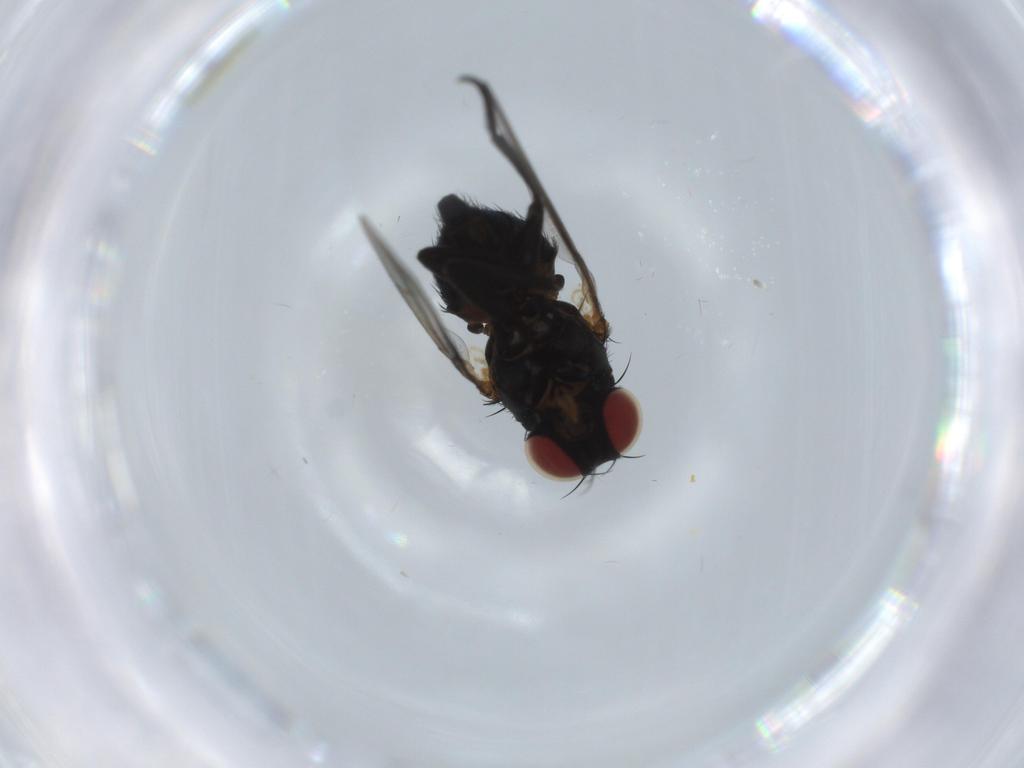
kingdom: Animalia
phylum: Arthropoda
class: Insecta
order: Diptera
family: Agromyzidae
